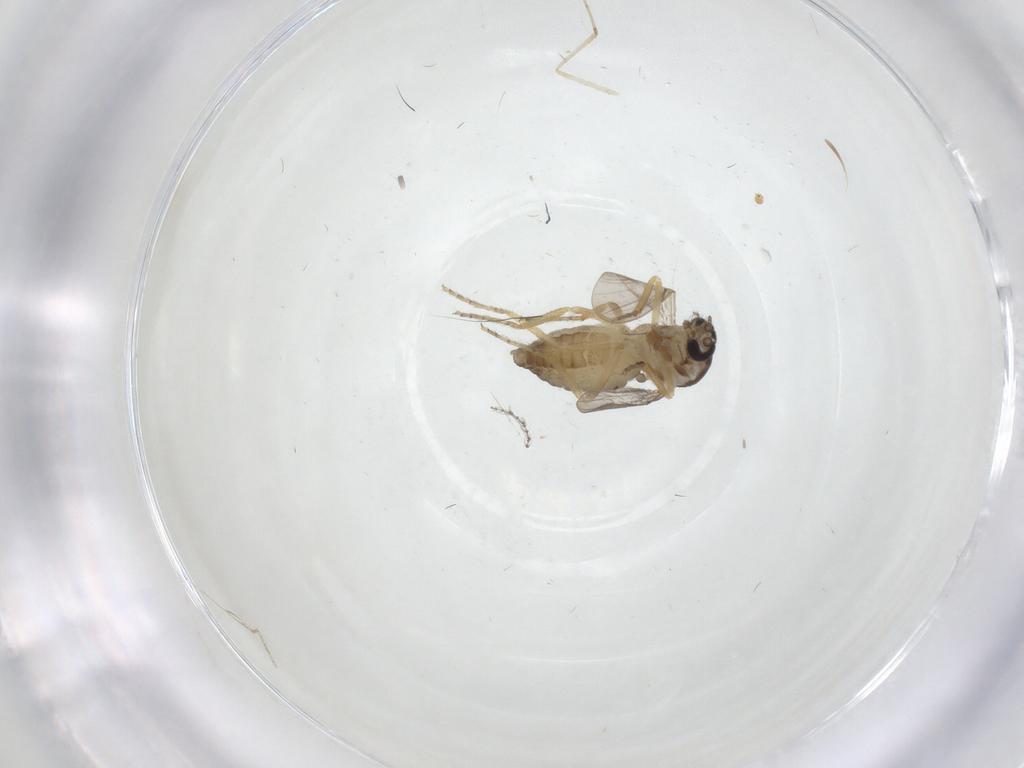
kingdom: Animalia
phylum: Arthropoda
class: Insecta
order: Diptera
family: Ceratopogonidae
